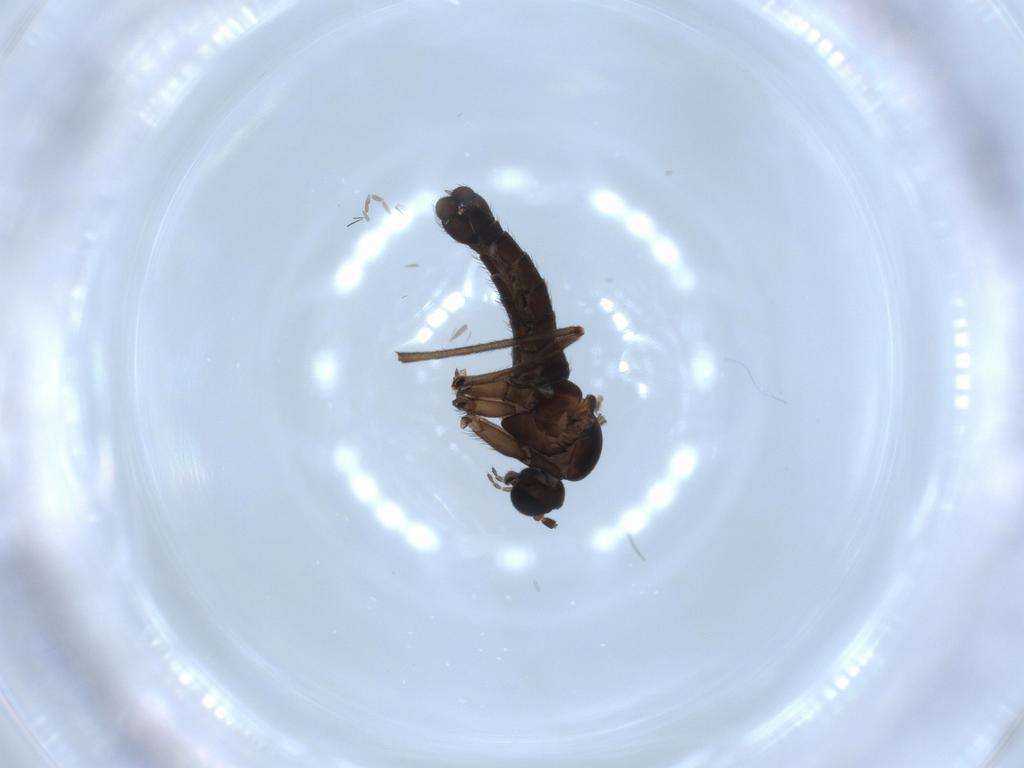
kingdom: Animalia
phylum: Arthropoda
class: Insecta
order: Diptera
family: Sciaridae
